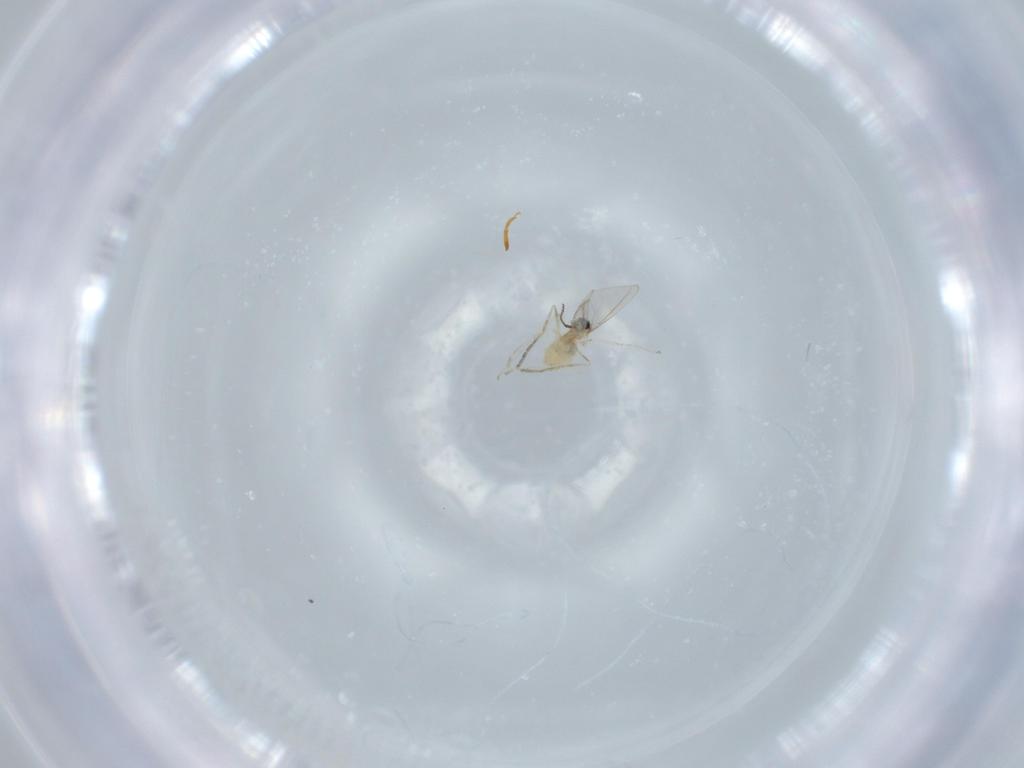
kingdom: Animalia
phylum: Arthropoda
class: Insecta
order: Diptera
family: Cecidomyiidae
